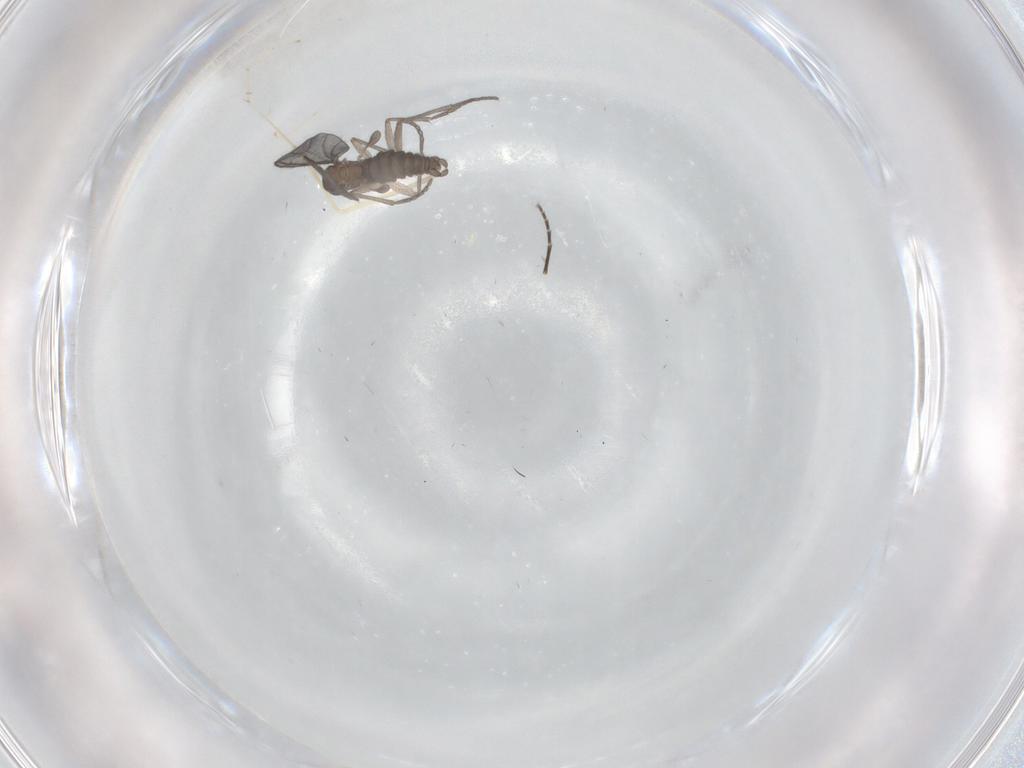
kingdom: Animalia
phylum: Arthropoda
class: Insecta
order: Diptera
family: Sciaridae
